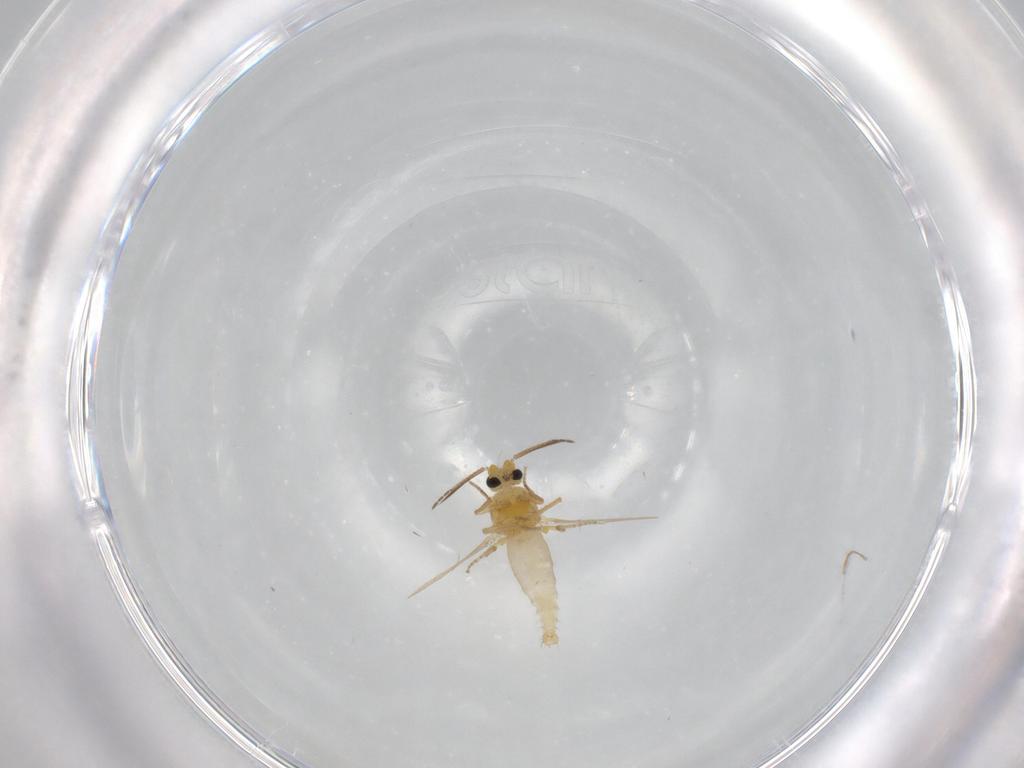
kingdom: Animalia
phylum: Arthropoda
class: Insecta
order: Diptera
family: Ceratopogonidae
